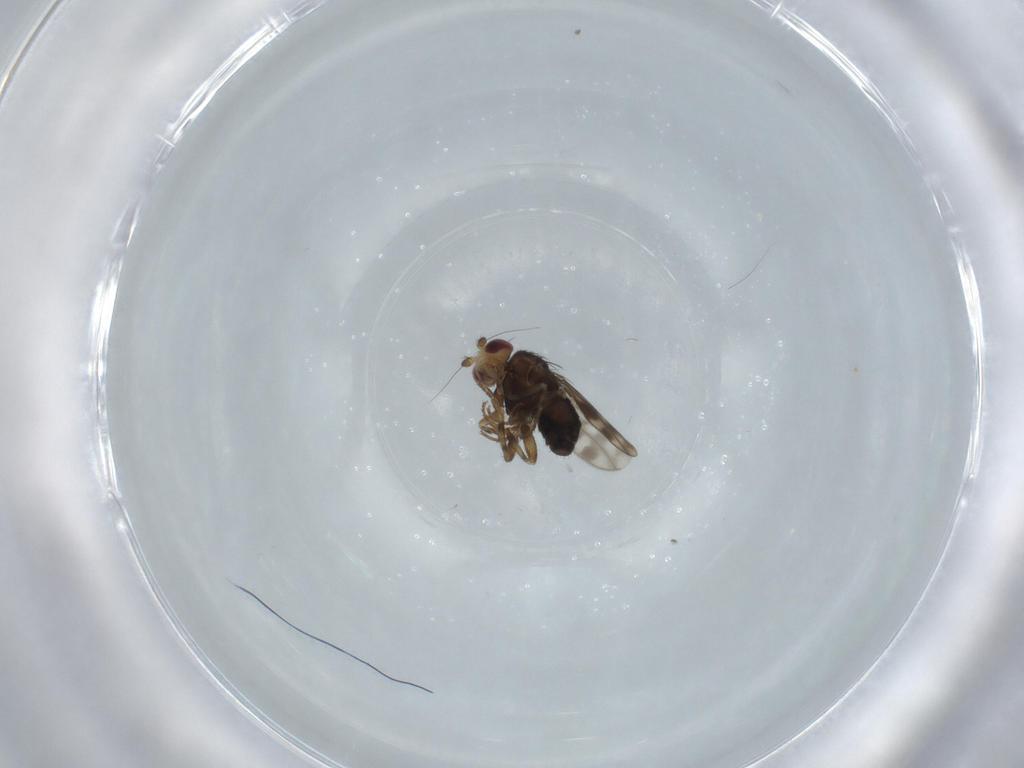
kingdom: Animalia
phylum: Arthropoda
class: Insecta
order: Diptera
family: Sphaeroceridae
